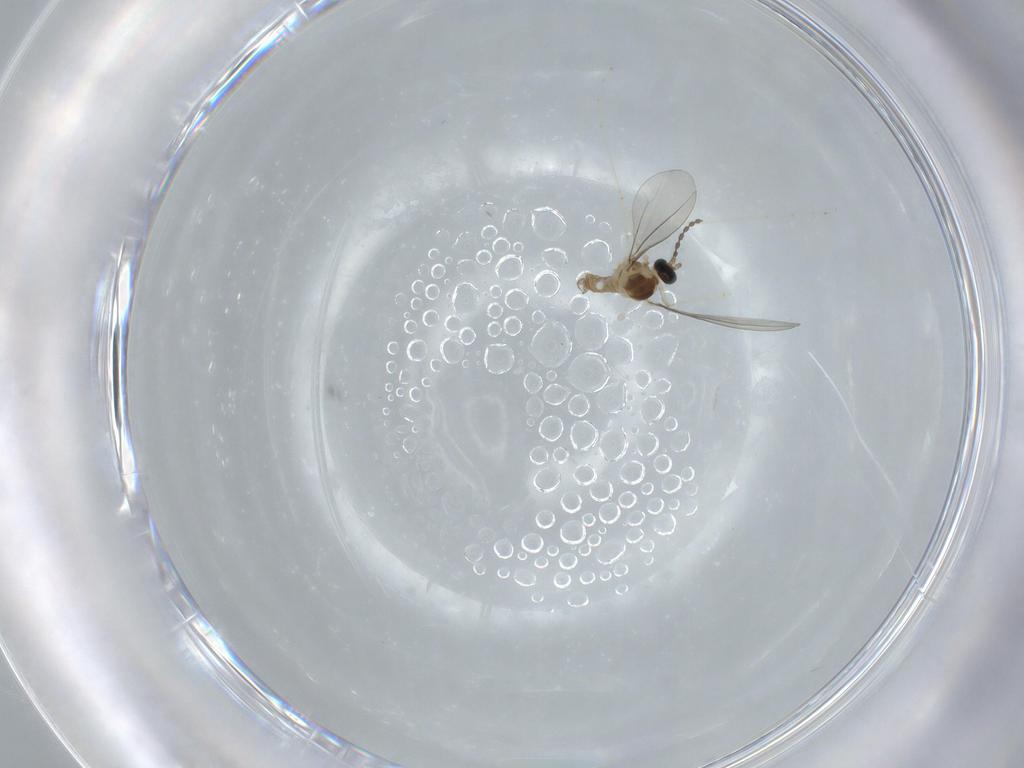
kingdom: Animalia
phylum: Arthropoda
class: Insecta
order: Diptera
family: Cecidomyiidae
